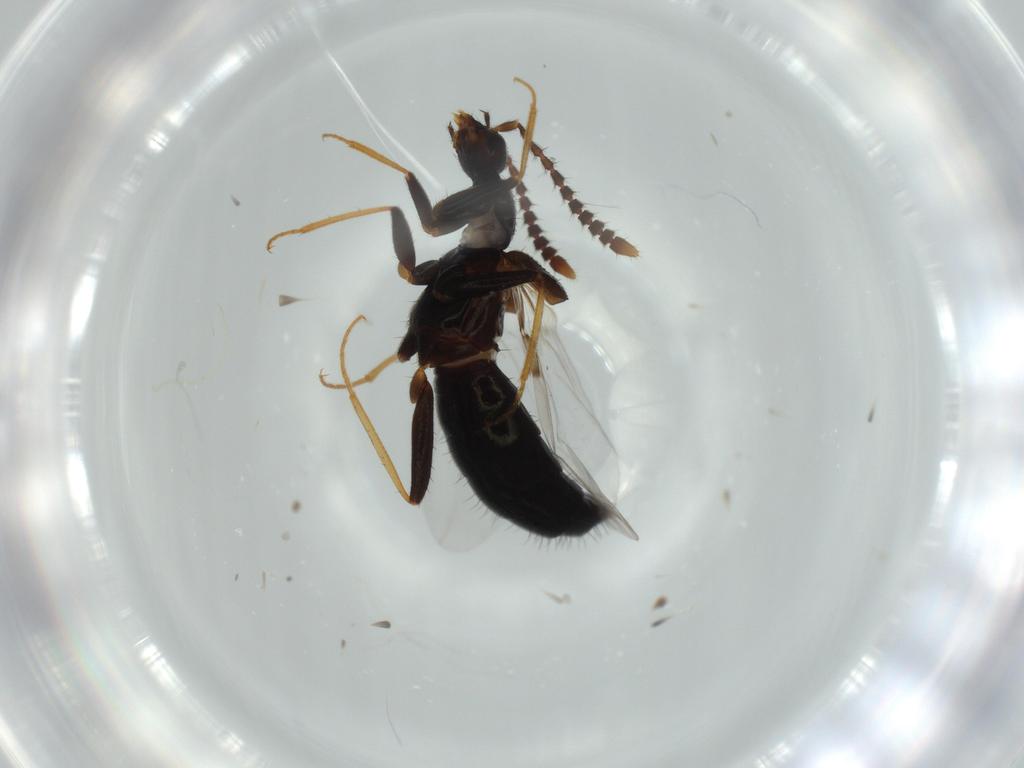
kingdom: Animalia
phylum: Arthropoda
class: Insecta
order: Coleoptera
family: Staphylinidae
